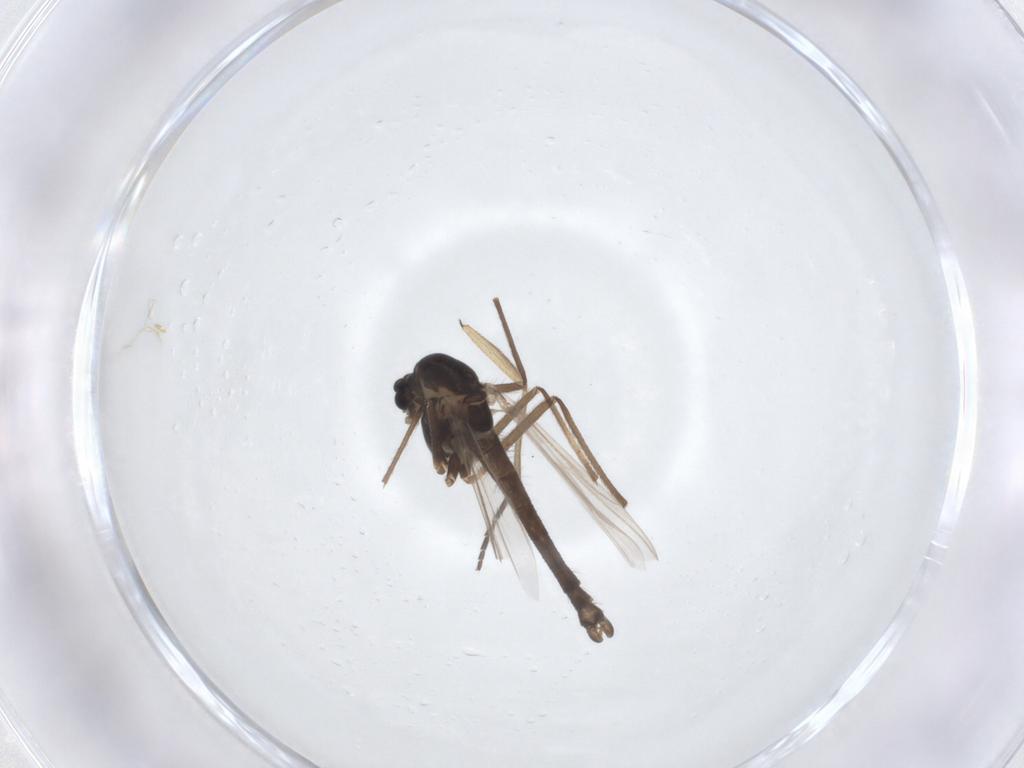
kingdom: Animalia
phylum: Arthropoda
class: Insecta
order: Diptera
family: Chironomidae
